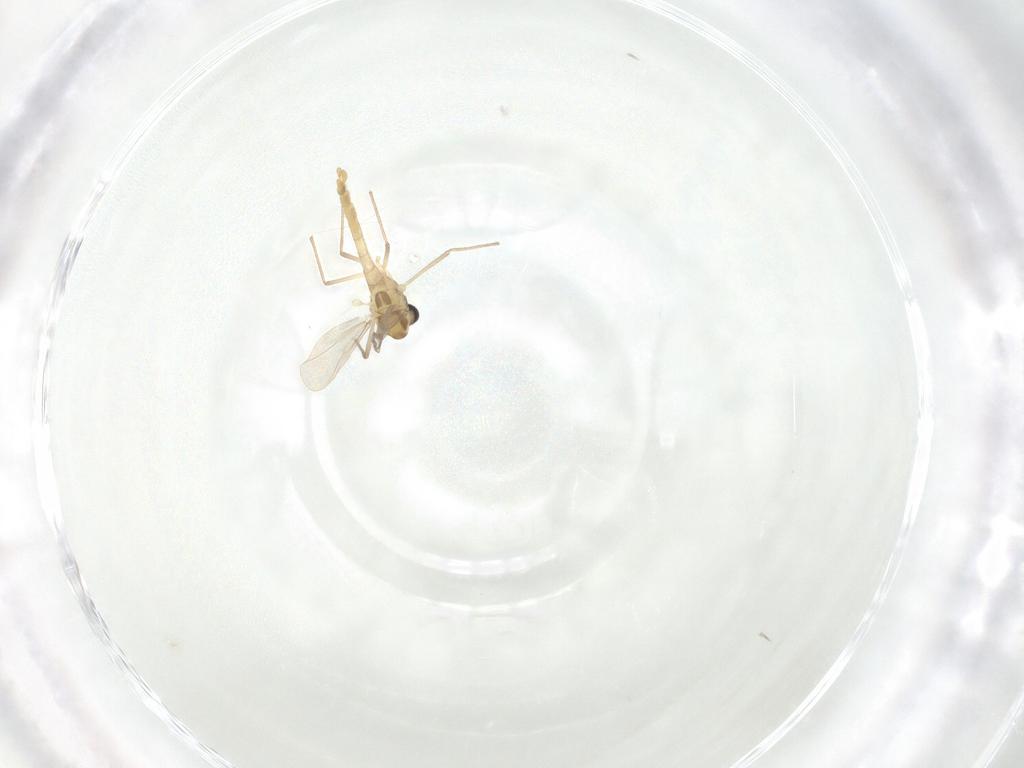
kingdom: Animalia
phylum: Arthropoda
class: Insecta
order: Diptera
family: Chironomidae
